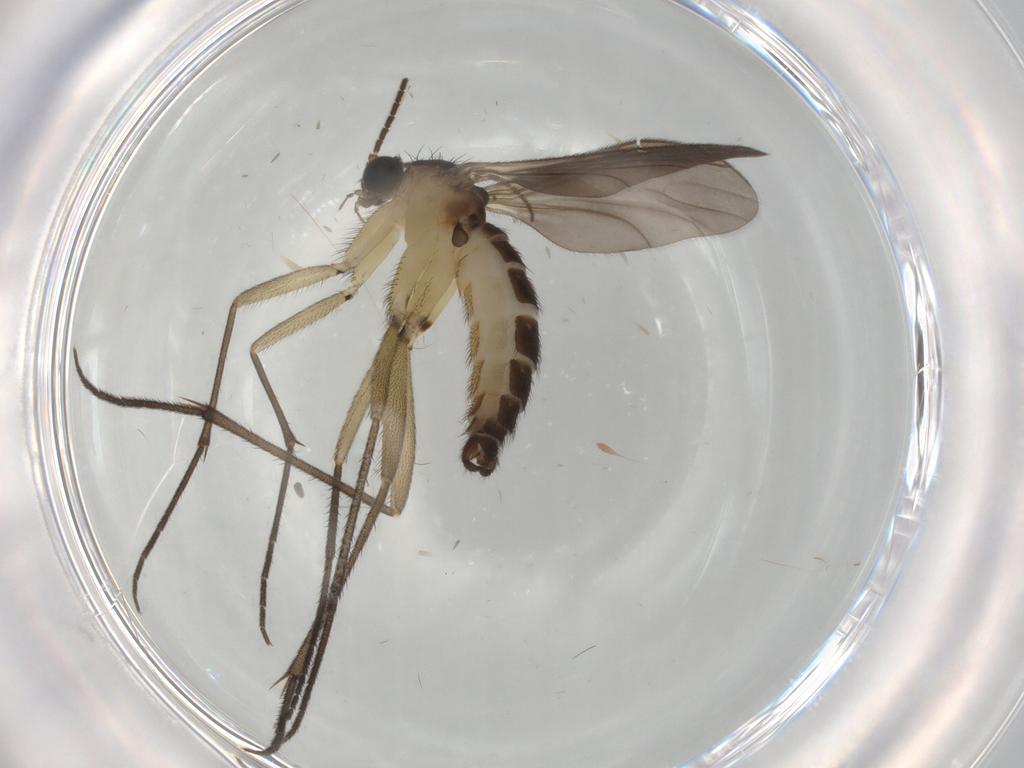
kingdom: Animalia
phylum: Arthropoda
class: Insecta
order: Diptera
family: Sciaridae
